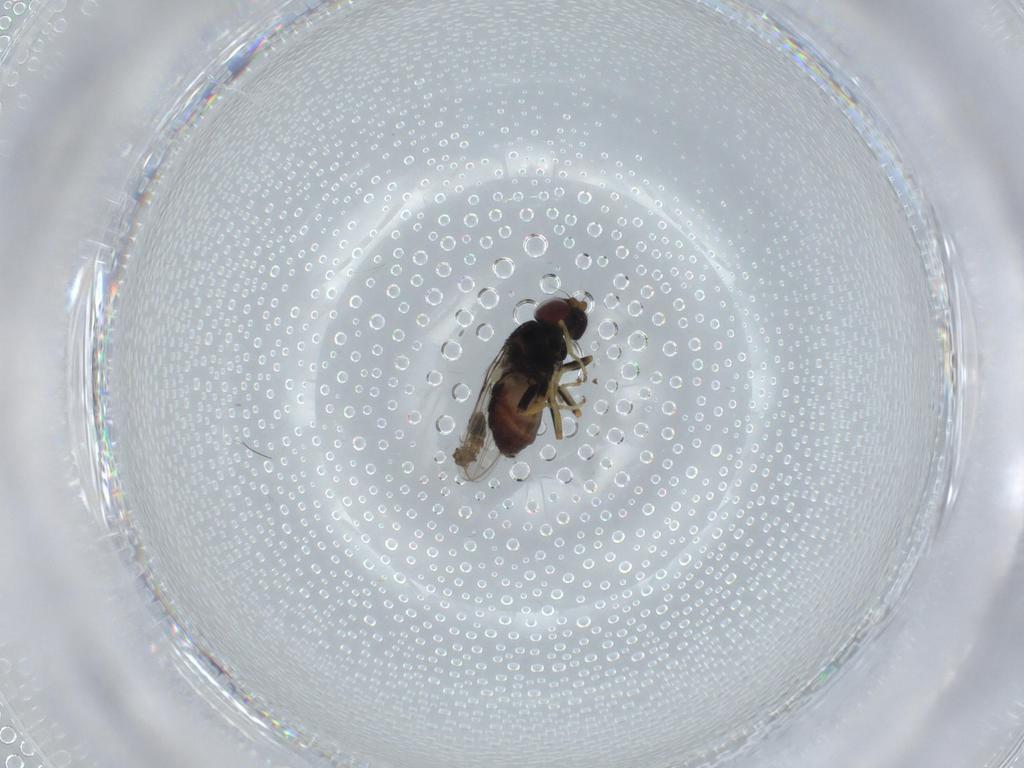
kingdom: Animalia
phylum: Arthropoda
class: Insecta
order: Diptera
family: Chloropidae
